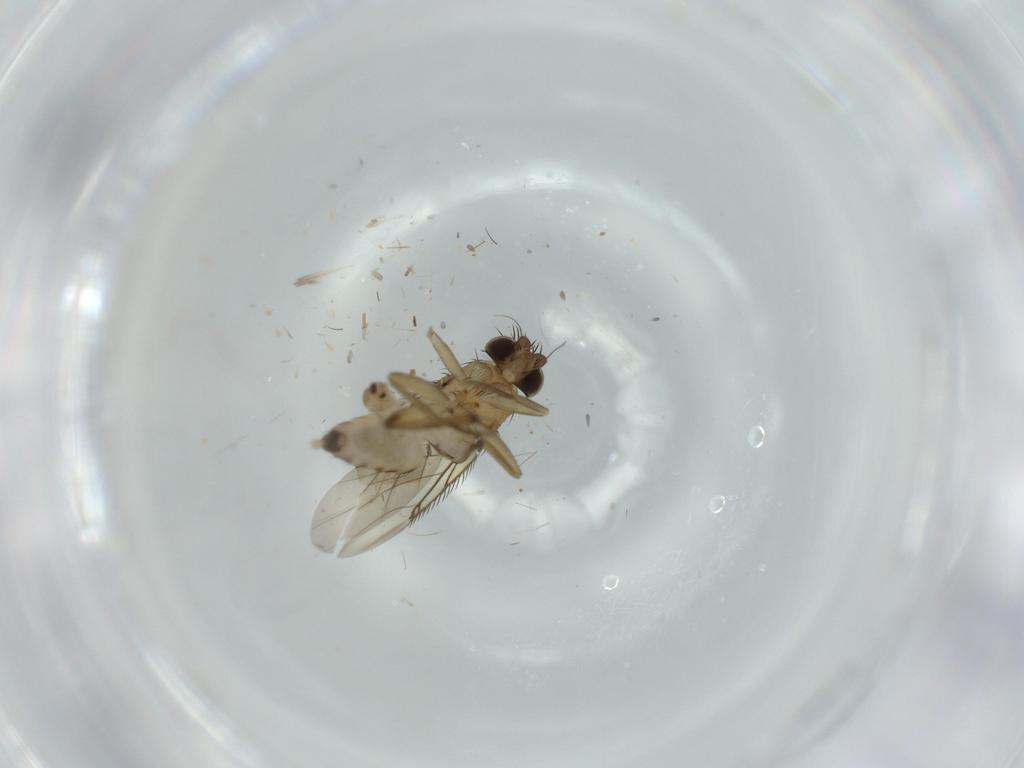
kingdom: Animalia
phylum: Arthropoda
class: Insecta
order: Diptera
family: Phoridae
